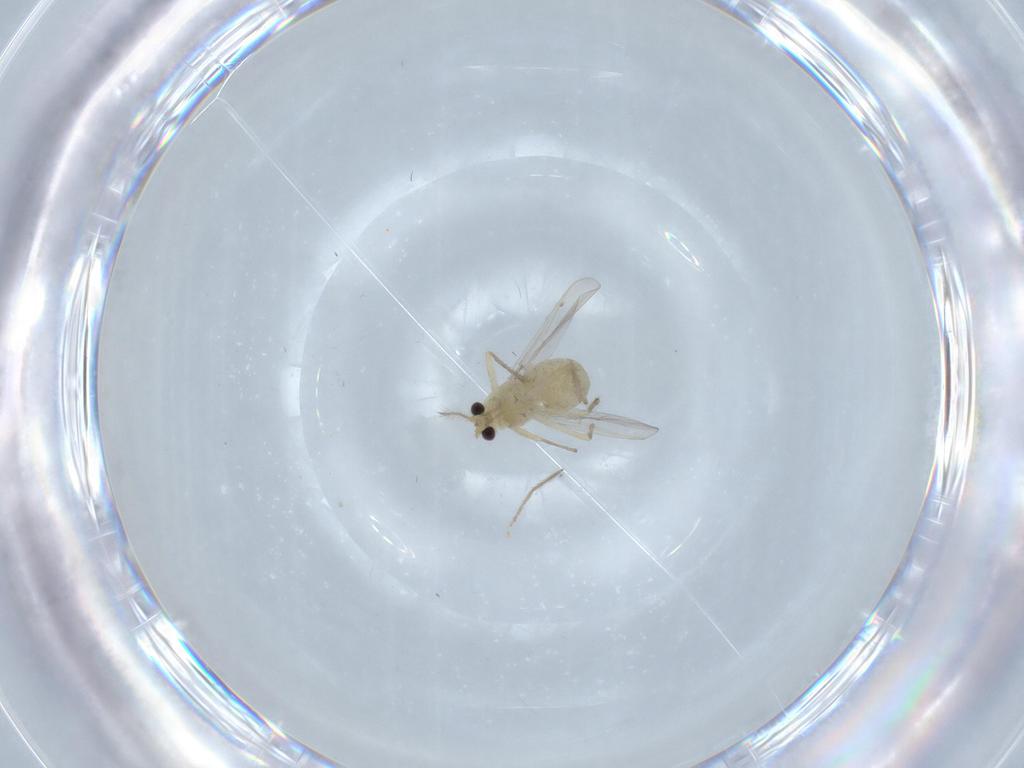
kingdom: Animalia
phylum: Arthropoda
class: Insecta
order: Diptera
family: Chironomidae
